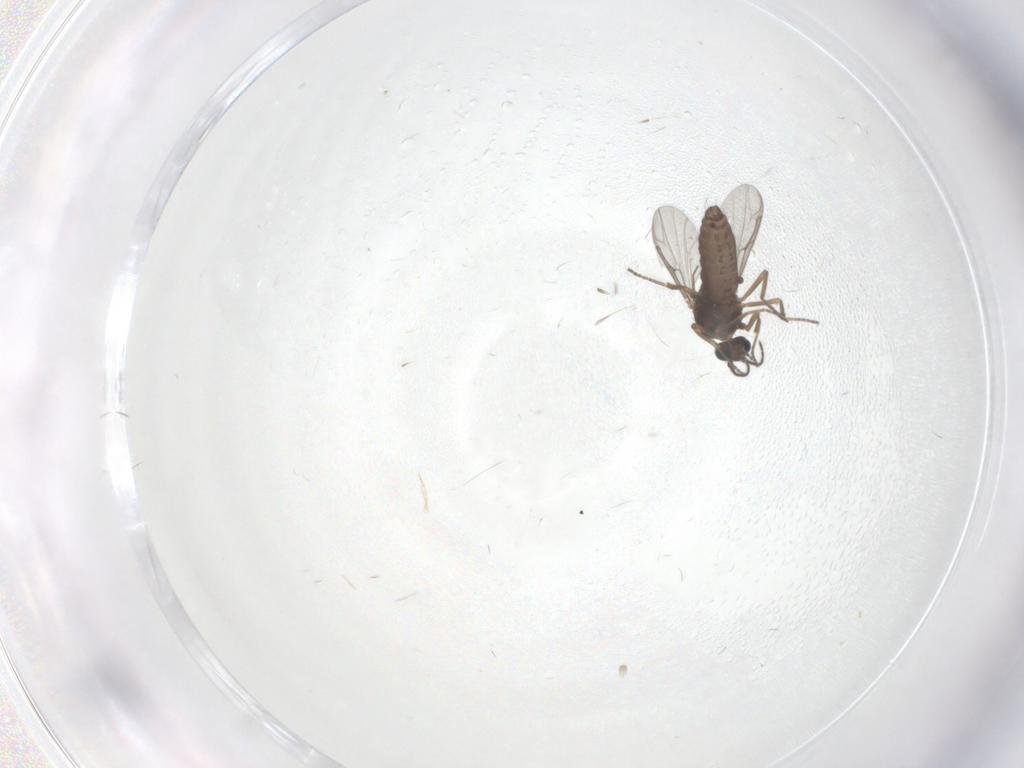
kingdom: Animalia
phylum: Arthropoda
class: Insecta
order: Diptera
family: Ceratopogonidae
